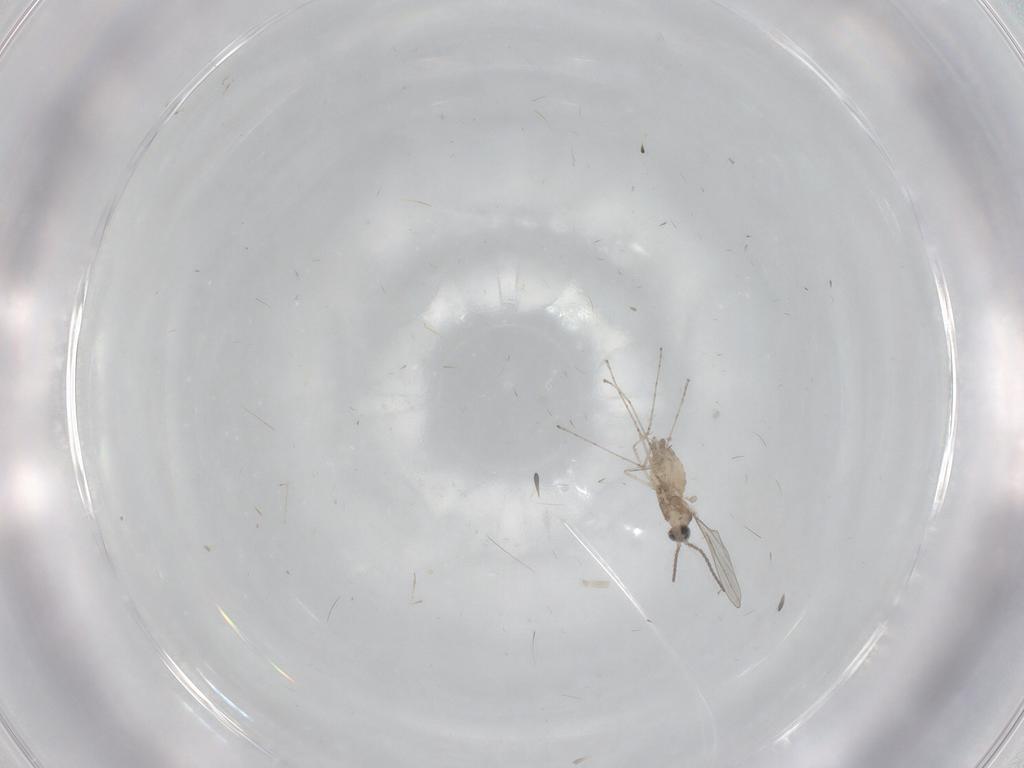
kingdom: Animalia
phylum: Arthropoda
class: Insecta
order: Diptera
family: Cecidomyiidae
